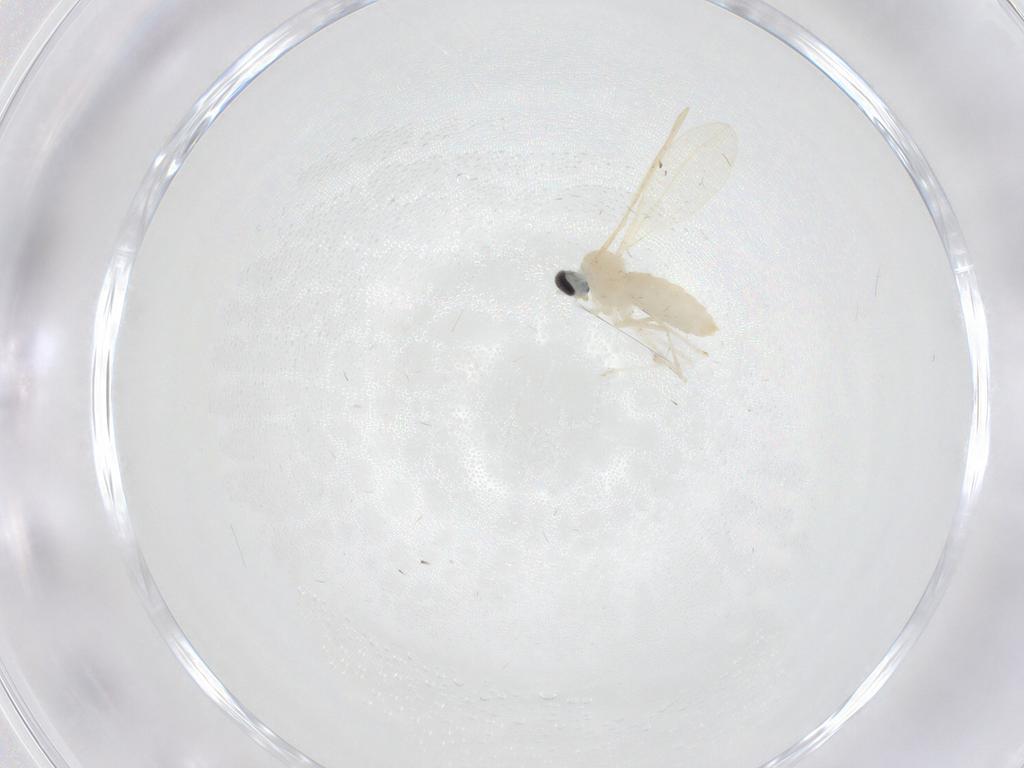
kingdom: Animalia
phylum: Arthropoda
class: Insecta
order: Diptera
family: Cecidomyiidae
